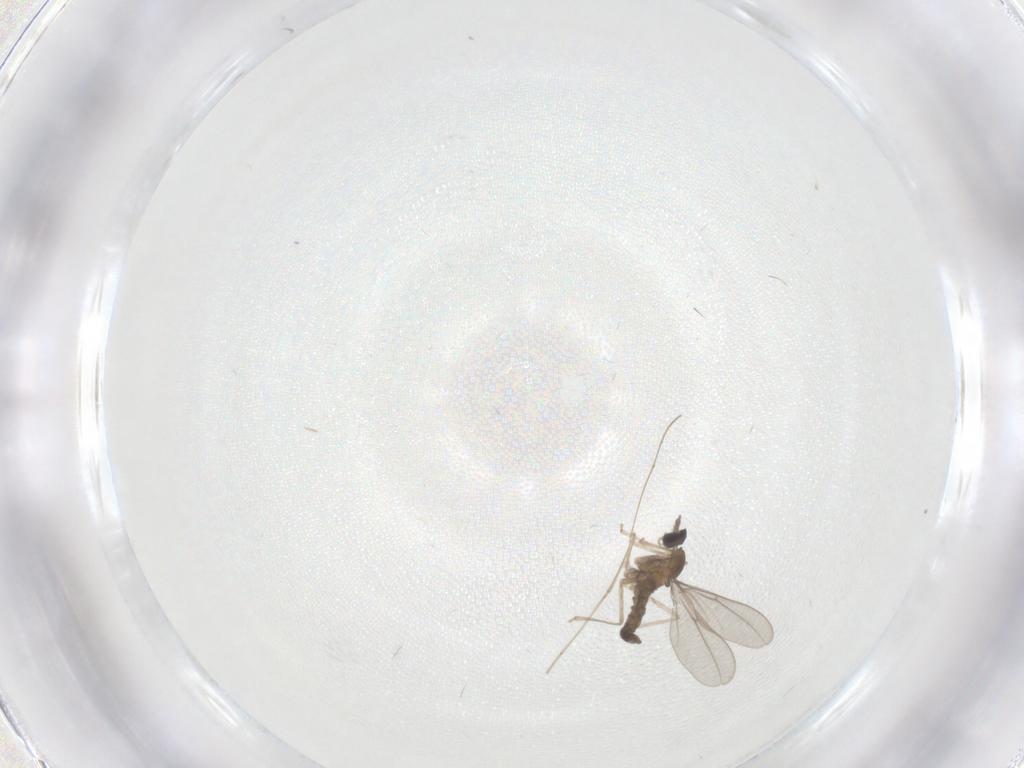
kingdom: Animalia
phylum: Arthropoda
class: Insecta
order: Diptera
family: Cecidomyiidae
